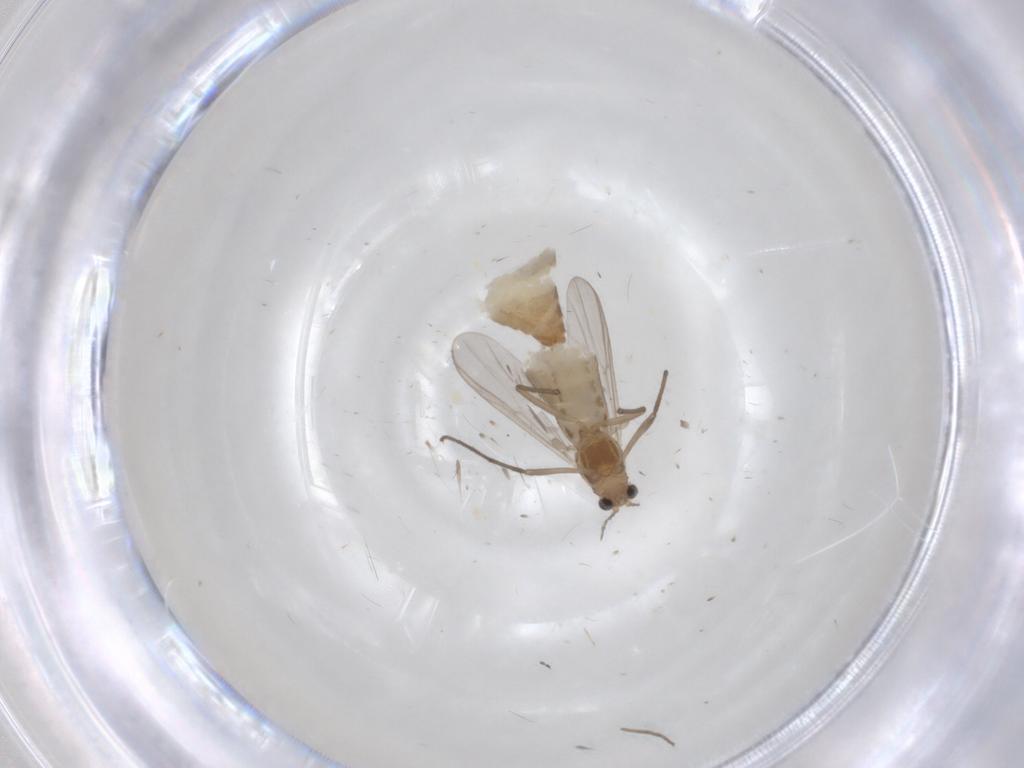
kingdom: Animalia
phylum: Arthropoda
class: Insecta
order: Diptera
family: Chironomidae
